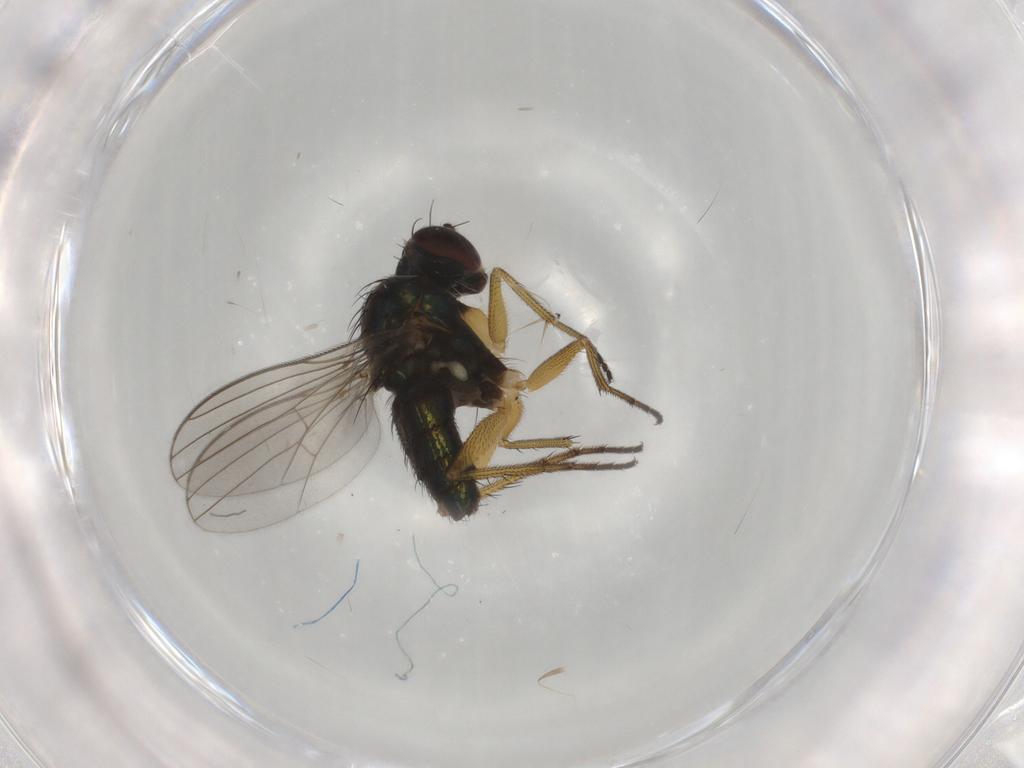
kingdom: Animalia
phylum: Arthropoda
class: Insecta
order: Diptera
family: Dolichopodidae
